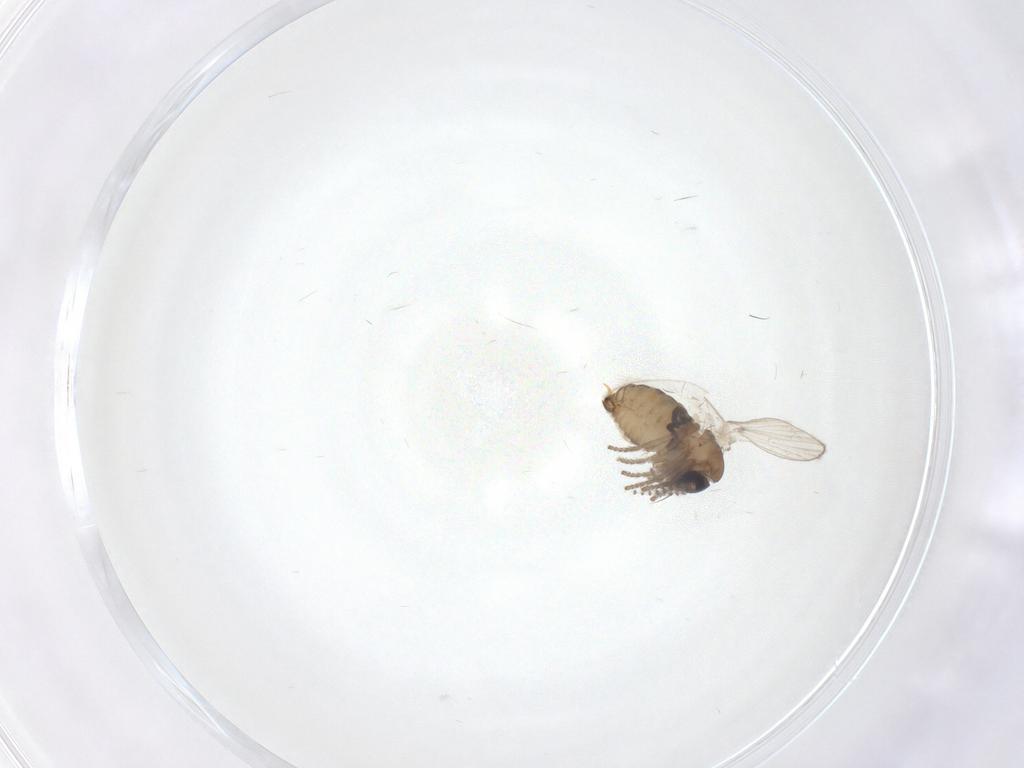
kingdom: Animalia
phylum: Arthropoda
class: Insecta
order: Diptera
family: Psychodidae
